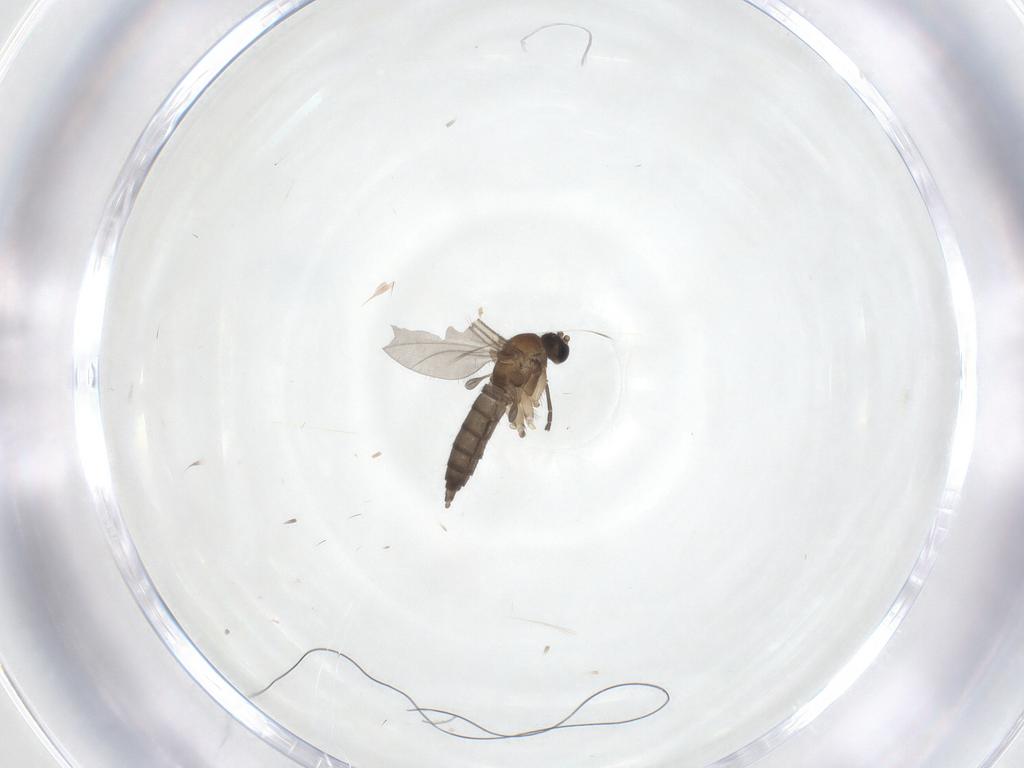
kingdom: Animalia
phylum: Arthropoda
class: Insecta
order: Diptera
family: Sciaridae
